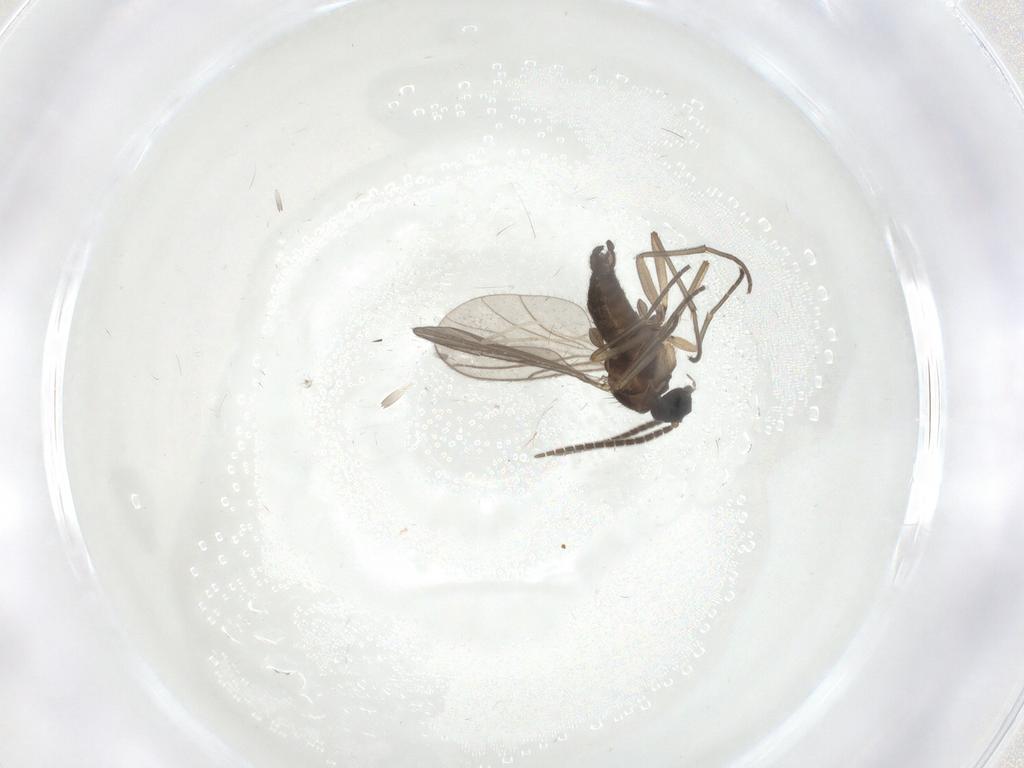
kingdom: Animalia
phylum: Arthropoda
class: Insecta
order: Diptera
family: Sciaridae
